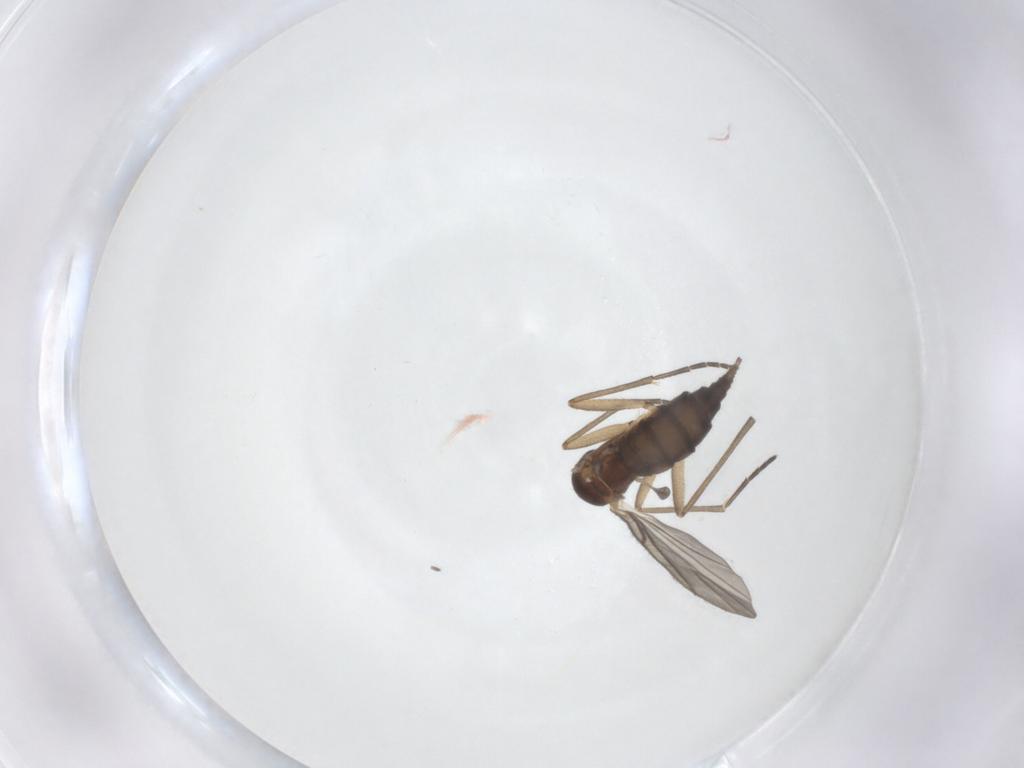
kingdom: Animalia
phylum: Arthropoda
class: Insecta
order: Diptera
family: Sciaridae
